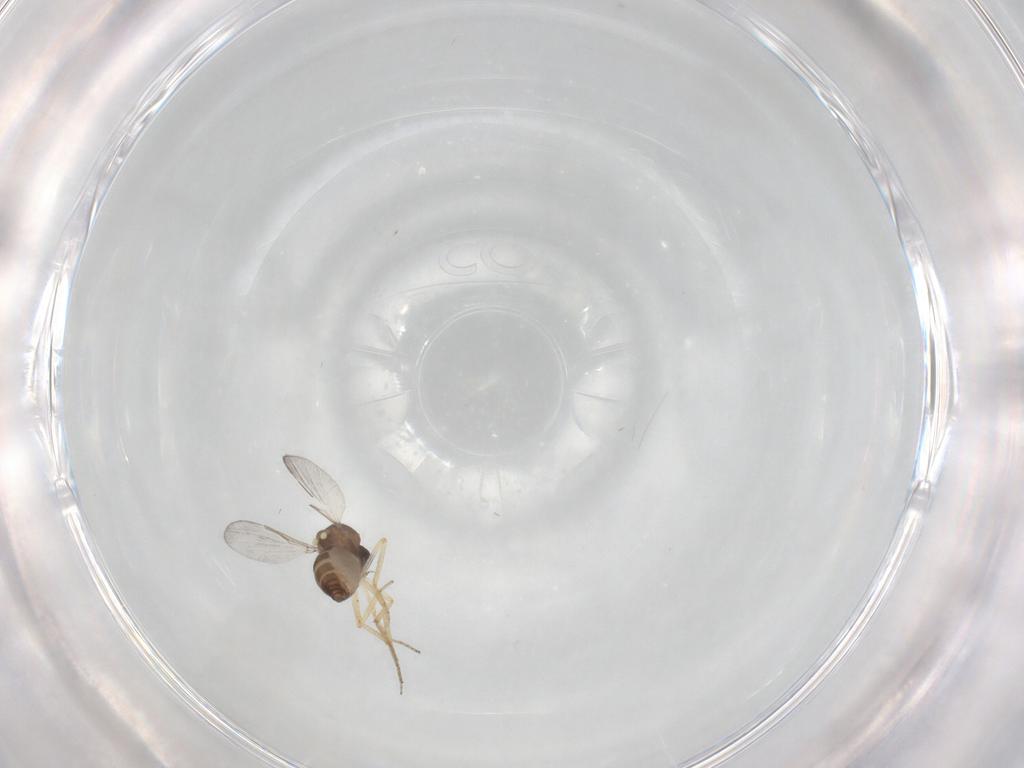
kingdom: Animalia
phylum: Arthropoda
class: Insecta
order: Diptera
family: Ceratopogonidae
